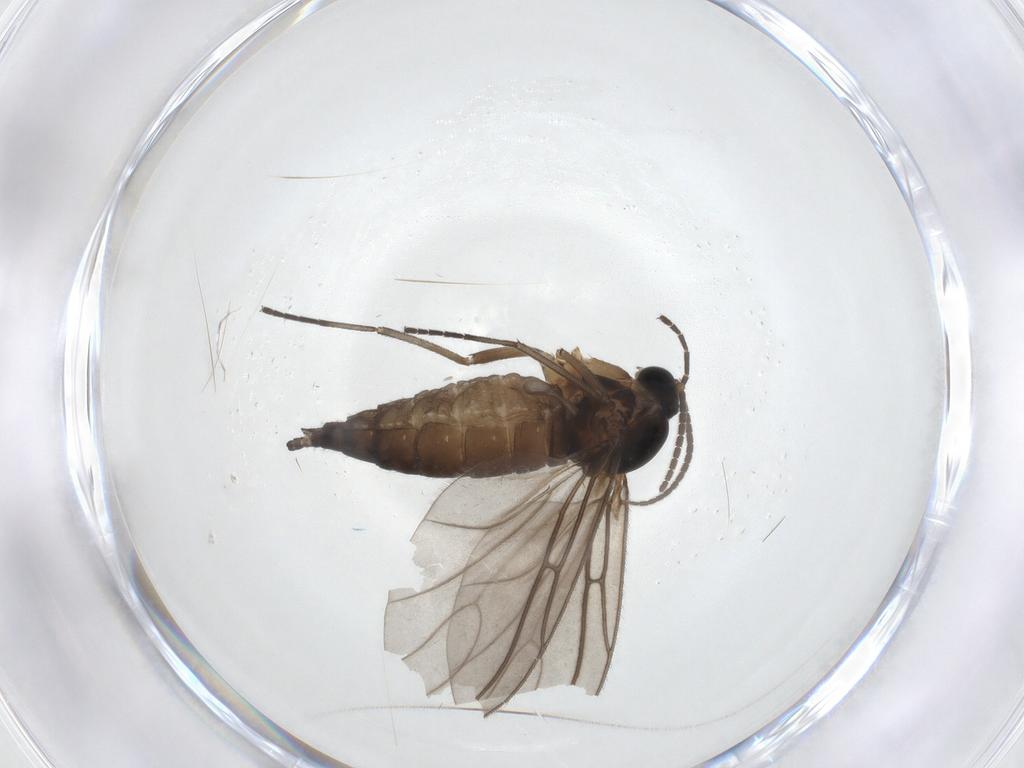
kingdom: Animalia
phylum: Arthropoda
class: Insecta
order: Diptera
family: Sciaridae
